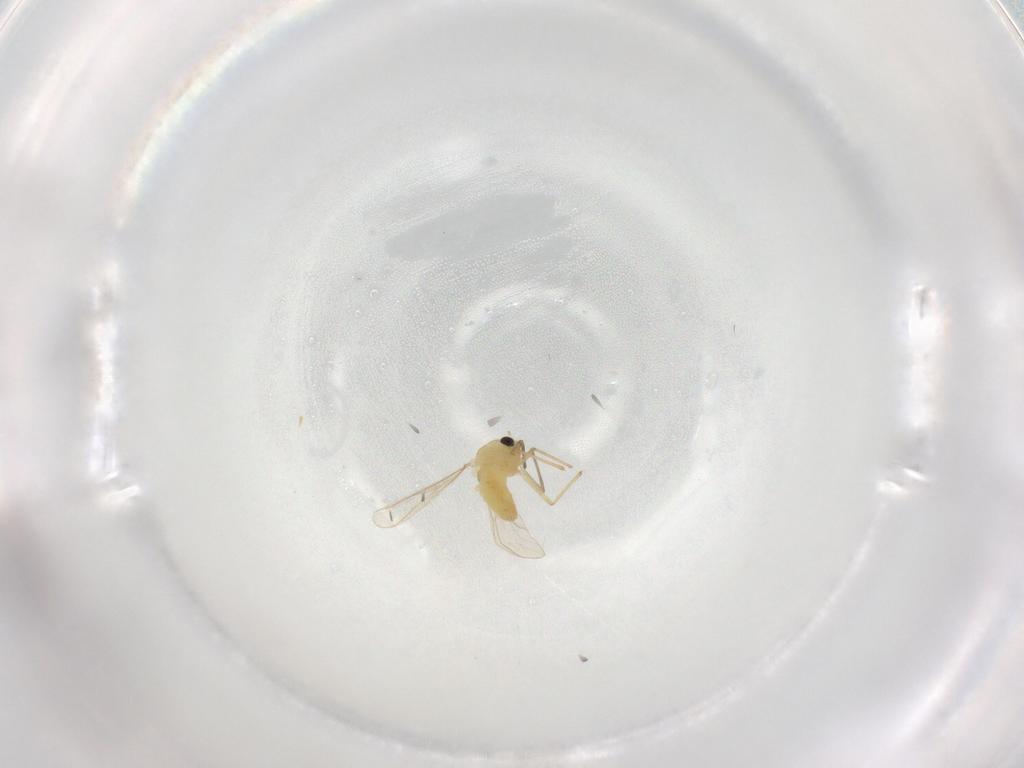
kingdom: Animalia
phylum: Arthropoda
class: Insecta
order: Diptera
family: Chironomidae
